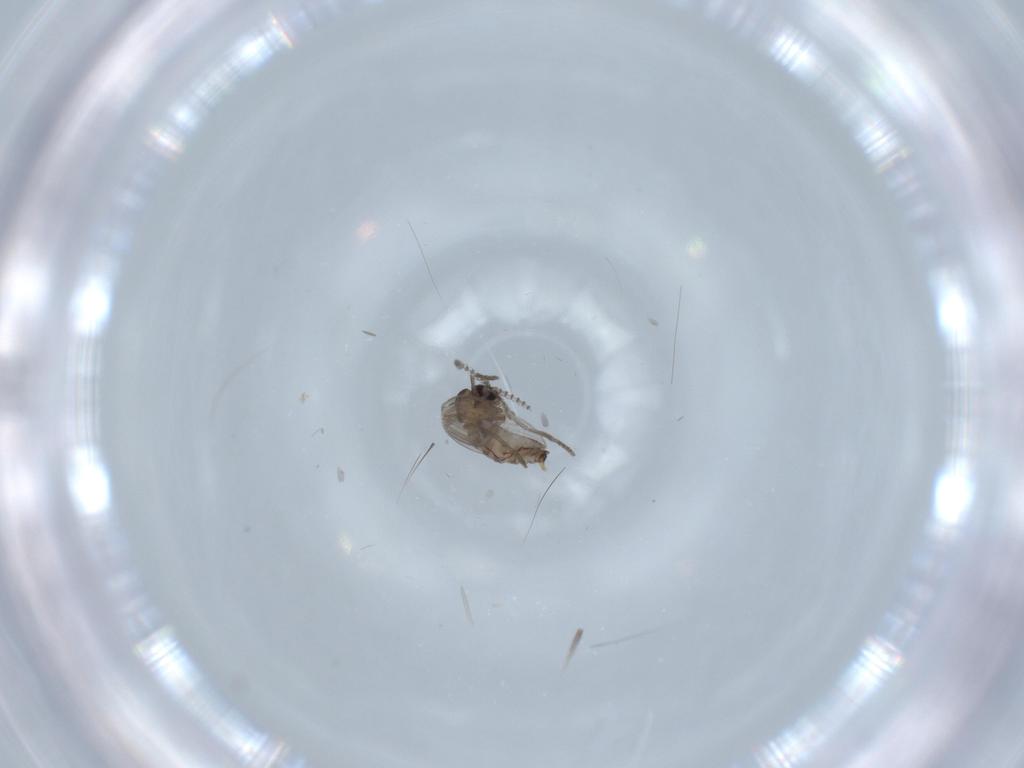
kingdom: Animalia
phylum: Arthropoda
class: Insecta
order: Diptera
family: Psychodidae
